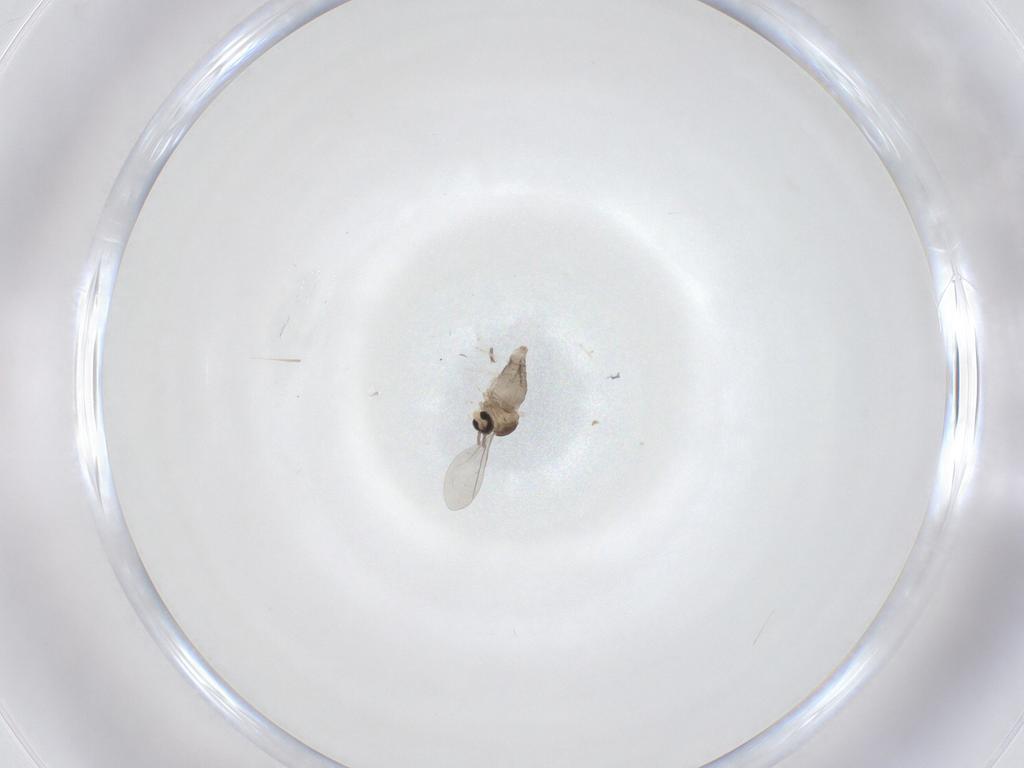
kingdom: Animalia
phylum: Arthropoda
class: Insecta
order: Diptera
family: Phoridae
